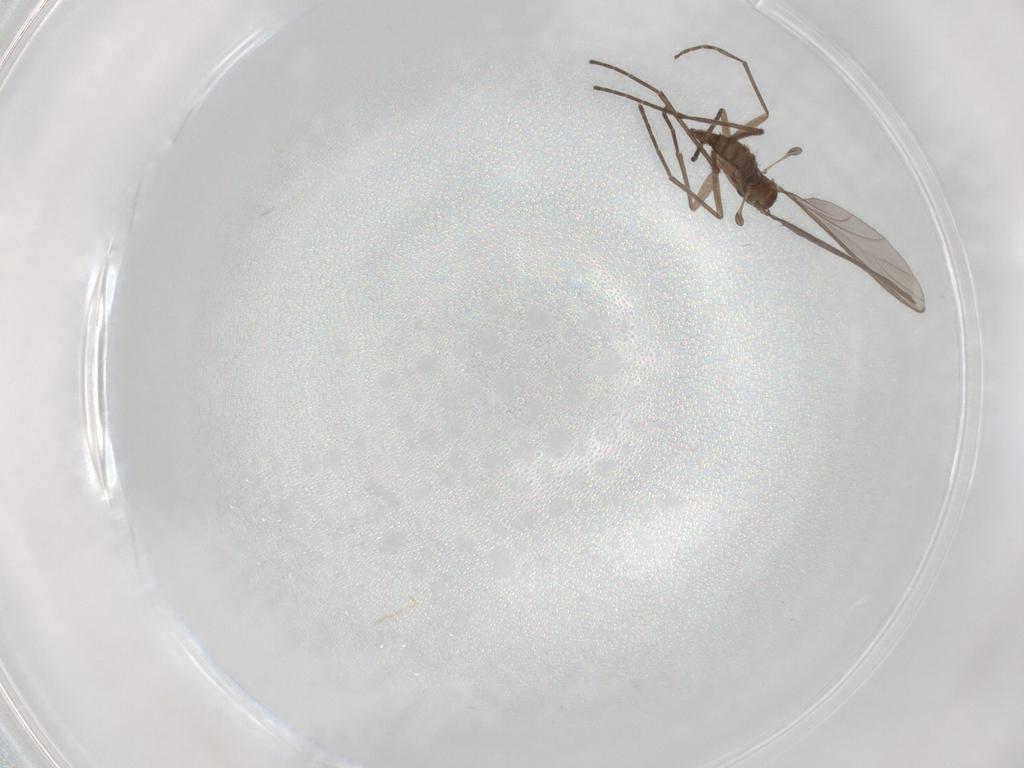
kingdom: Animalia
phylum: Arthropoda
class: Insecta
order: Diptera
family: Sciaridae
